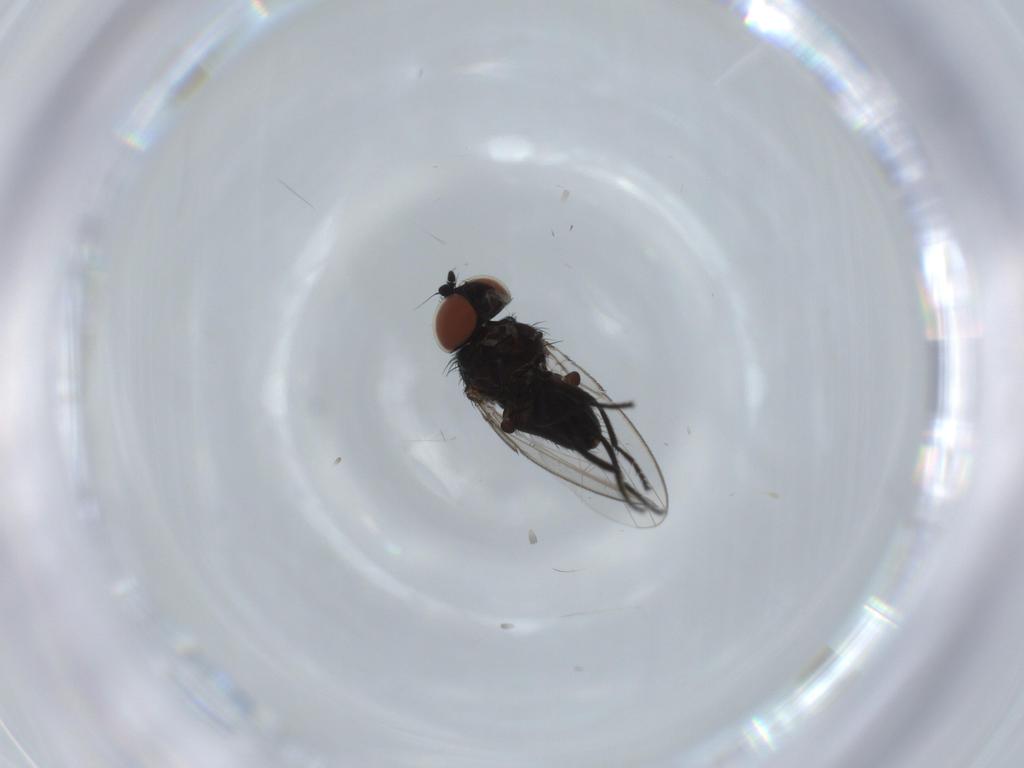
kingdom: Animalia
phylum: Arthropoda
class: Insecta
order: Diptera
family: Milichiidae
